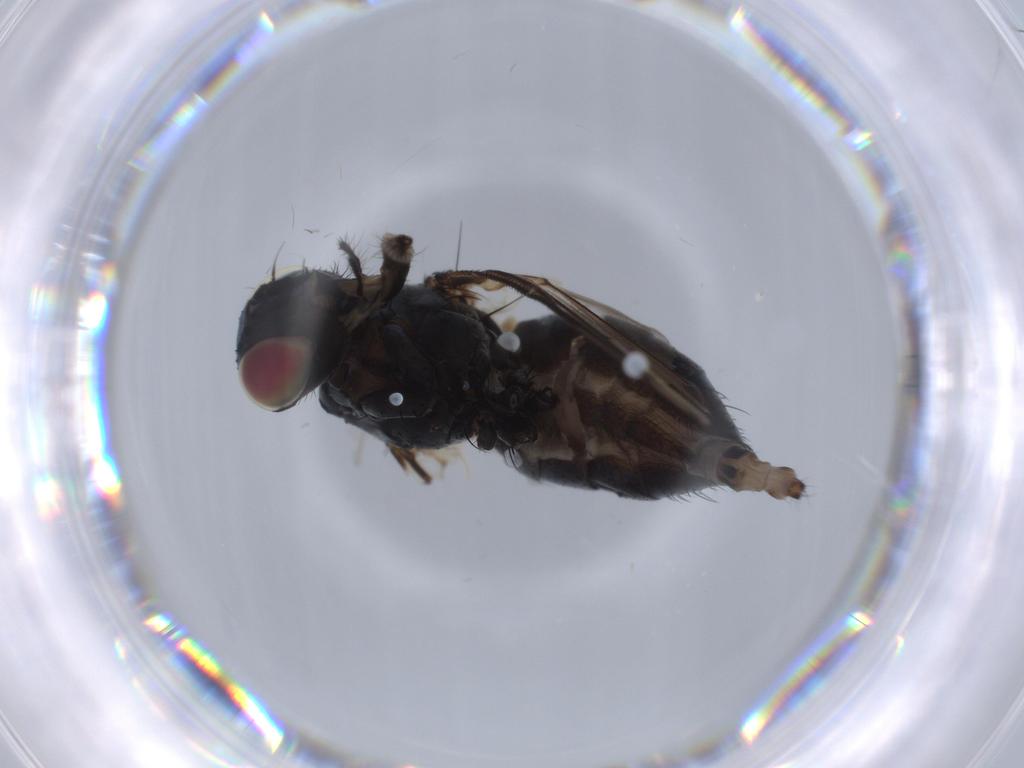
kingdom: Animalia
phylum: Arthropoda
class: Insecta
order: Diptera
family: Muscidae
